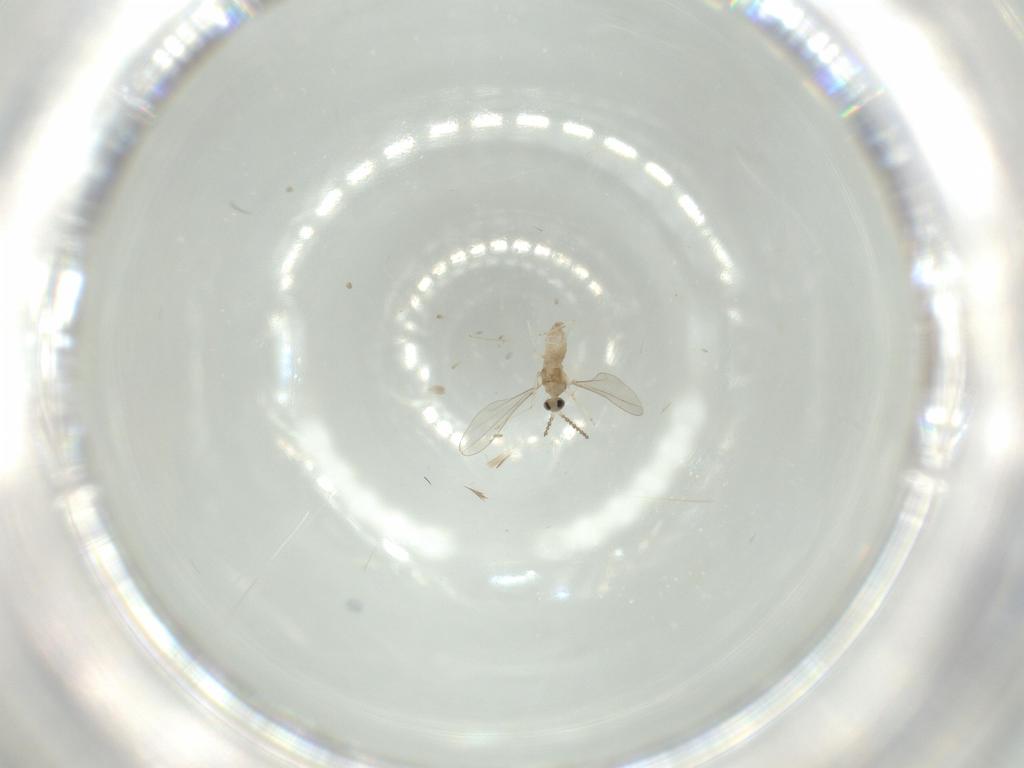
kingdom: Animalia
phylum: Arthropoda
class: Insecta
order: Diptera
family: Cecidomyiidae
